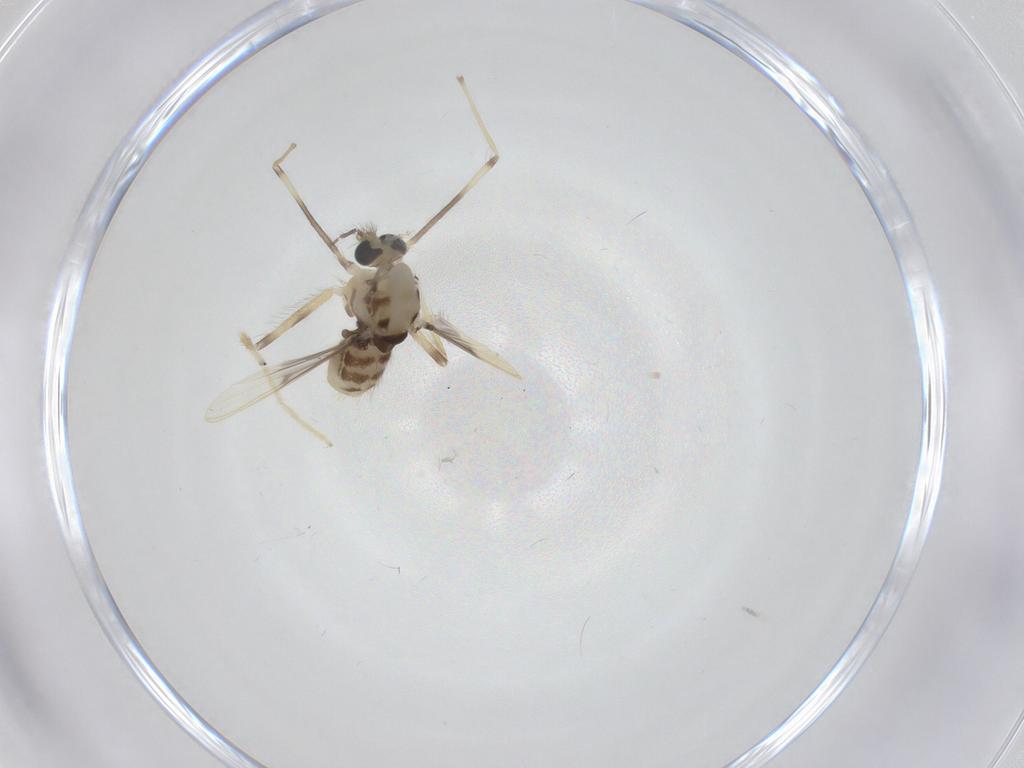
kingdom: Animalia
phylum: Arthropoda
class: Insecta
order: Diptera
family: Chironomidae
